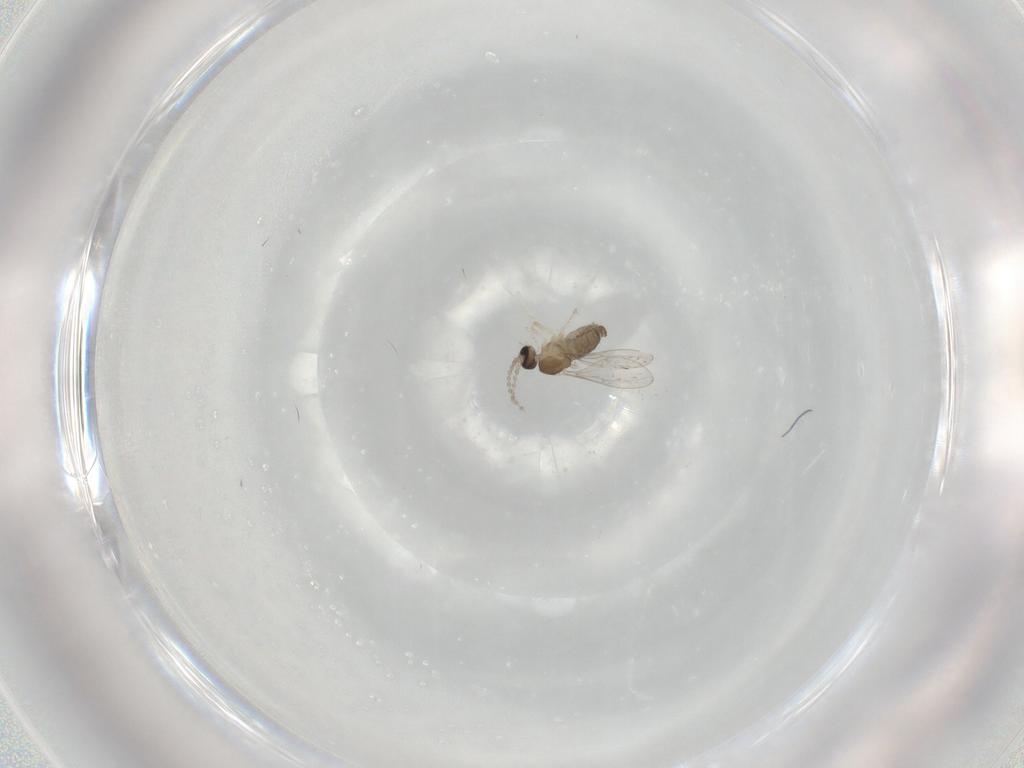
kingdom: Animalia
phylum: Arthropoda
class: Insecta
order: Diptera
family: Cecidomyiidae
